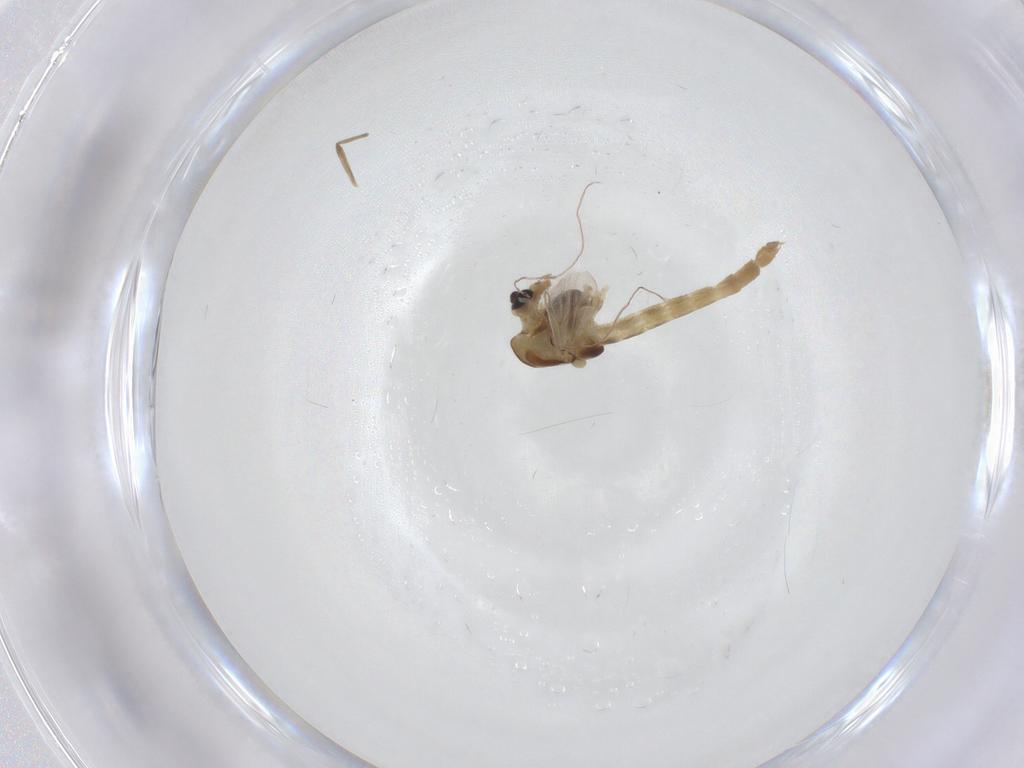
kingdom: Animalia
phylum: Arthropoda
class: Insecta
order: Diptera
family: Chironomidae
